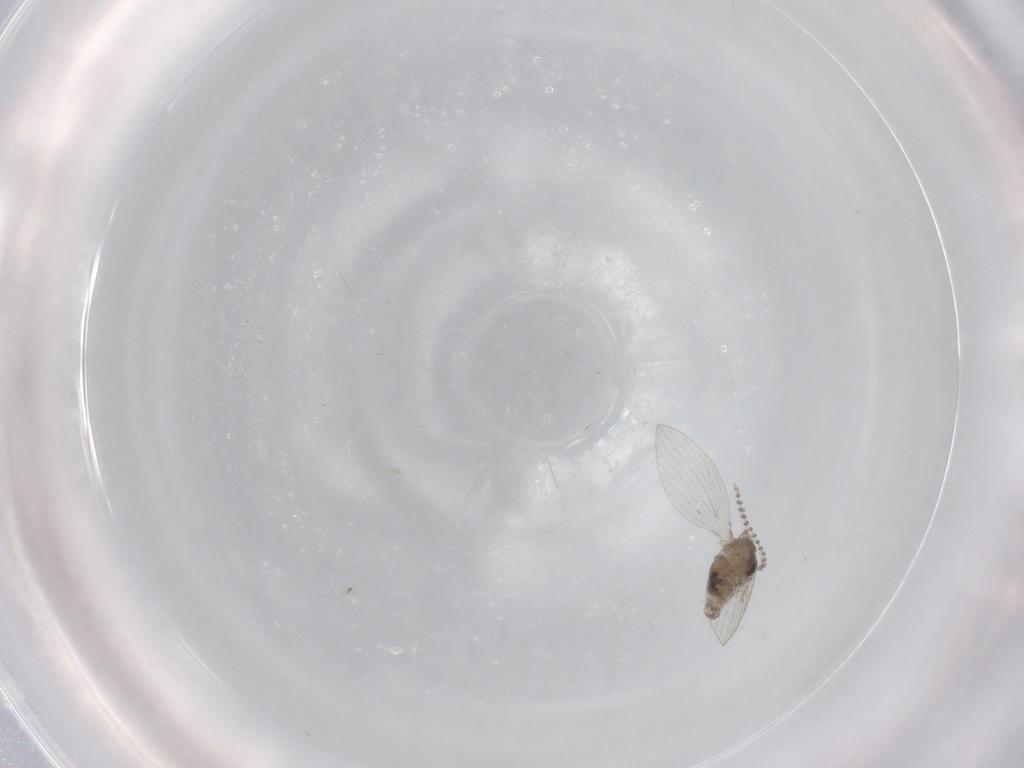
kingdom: Animalia
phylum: Arthropoda
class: Insecta
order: Diptera
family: Psychodidae
